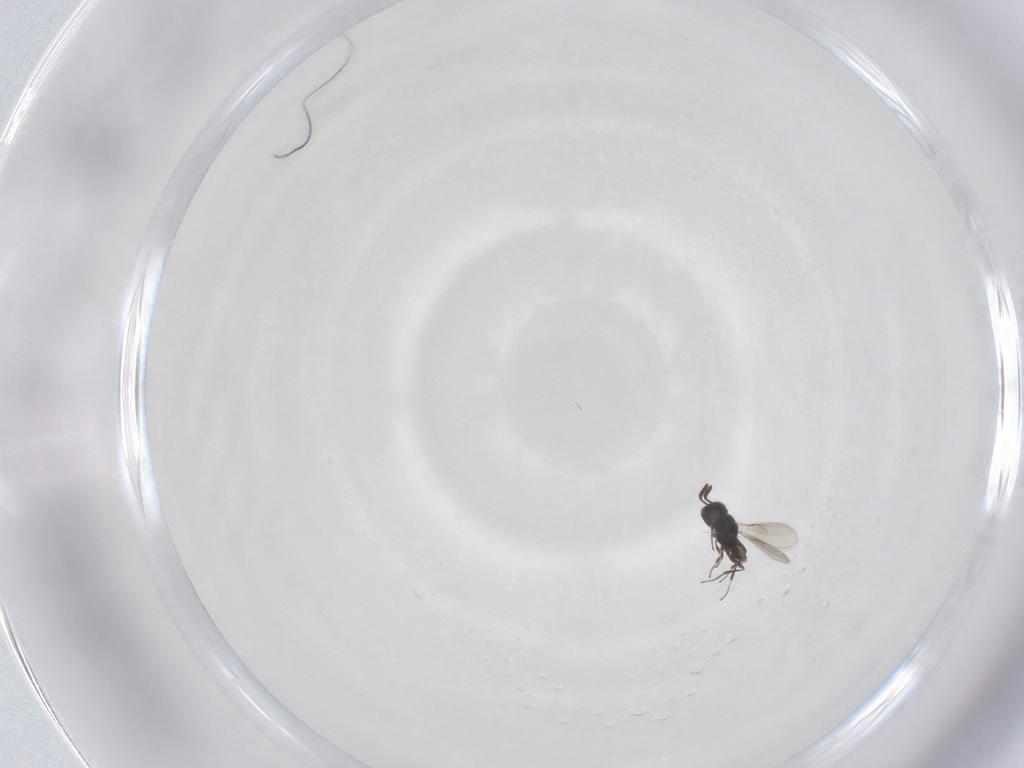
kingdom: Animalia
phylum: Arthropoda
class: Insecta
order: Hymenoptera
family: Scelionidae
